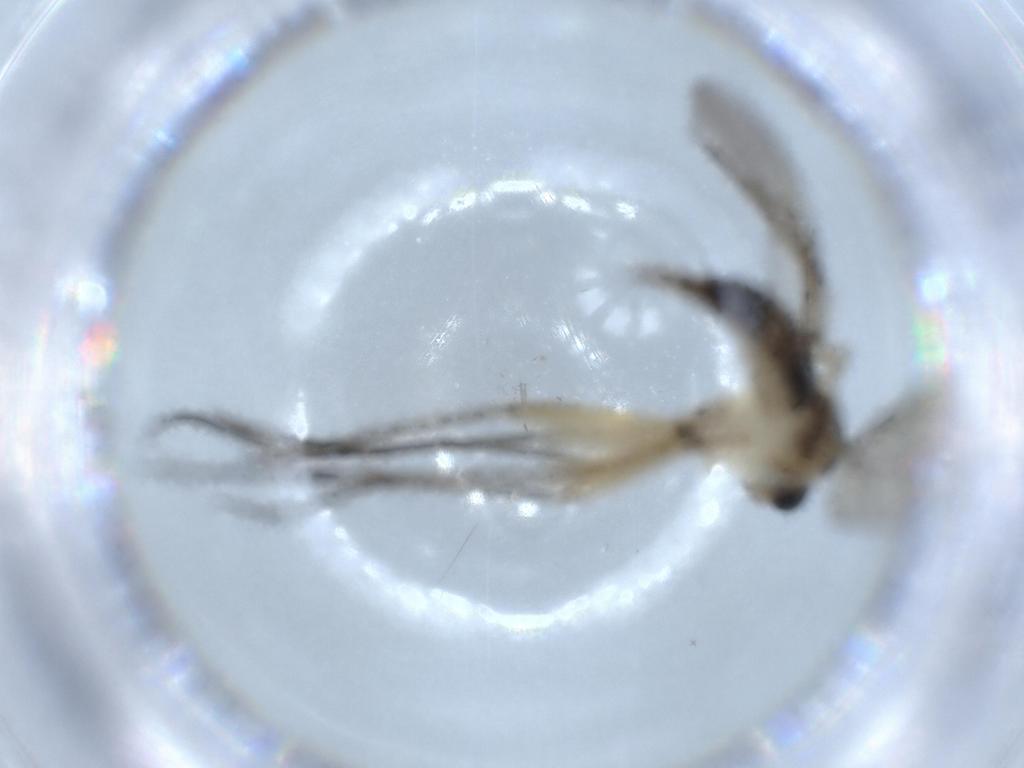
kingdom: Animalia
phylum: Arthropoda
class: Insecta
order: Diptera
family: Sciaridae
